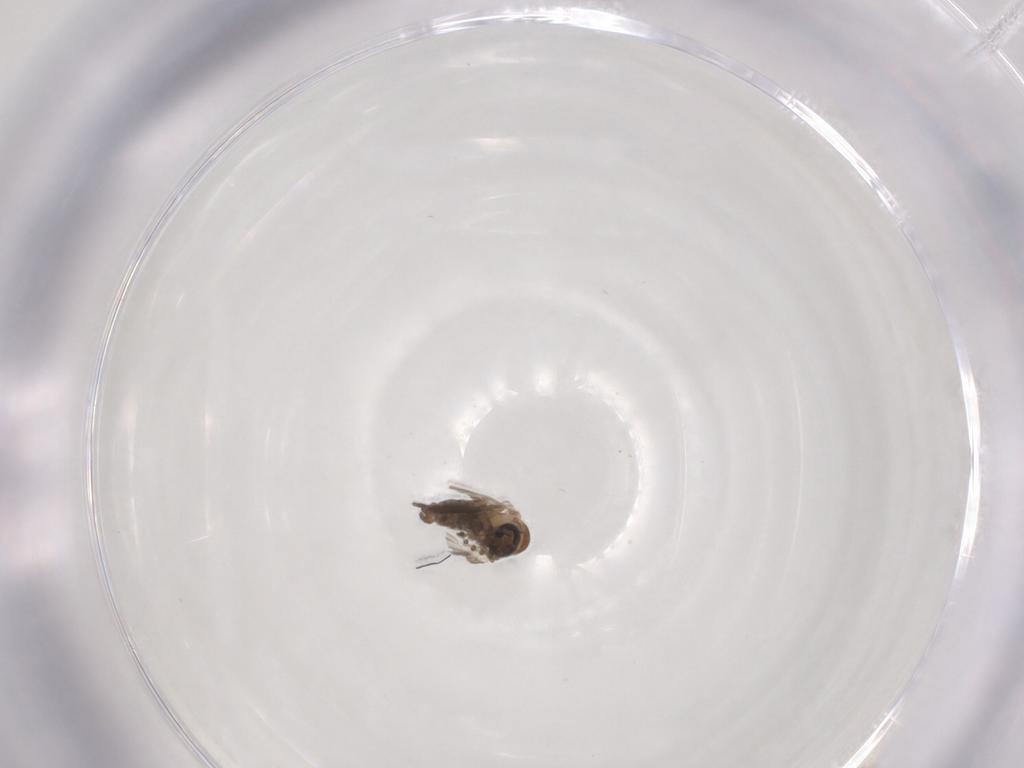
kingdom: Animalia
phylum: Arthropoda
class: Insecta
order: Diptera
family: Psychodidae
